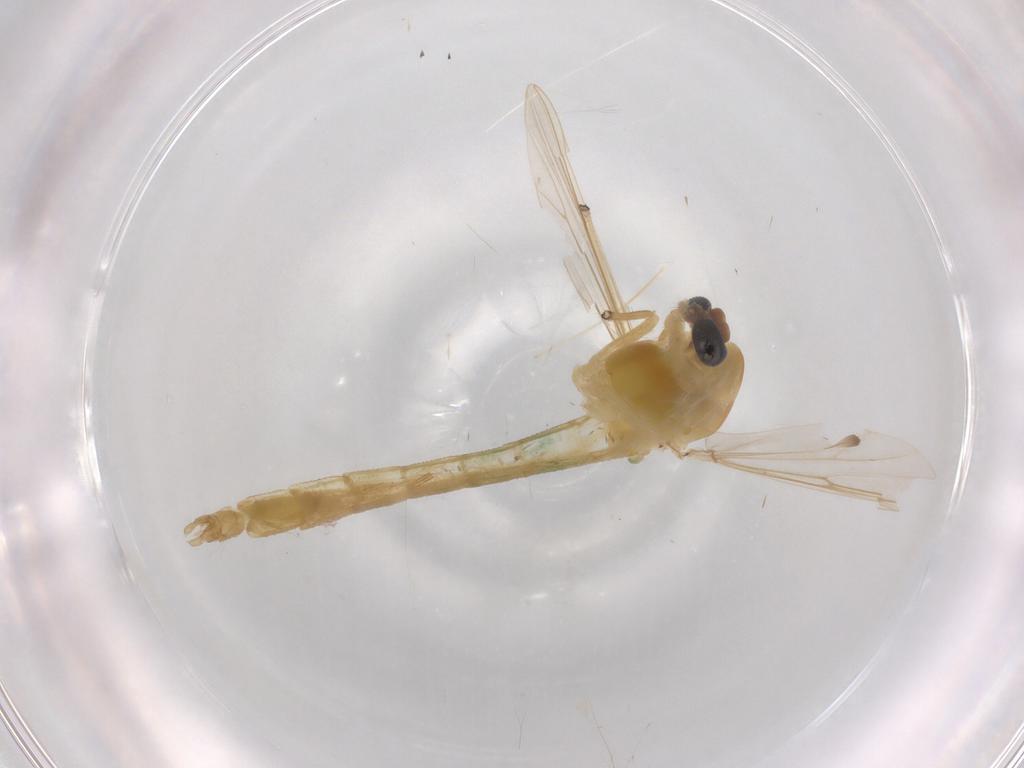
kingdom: Animalia
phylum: Arthropoda
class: Insecta
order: Diptera
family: Chironomidae
